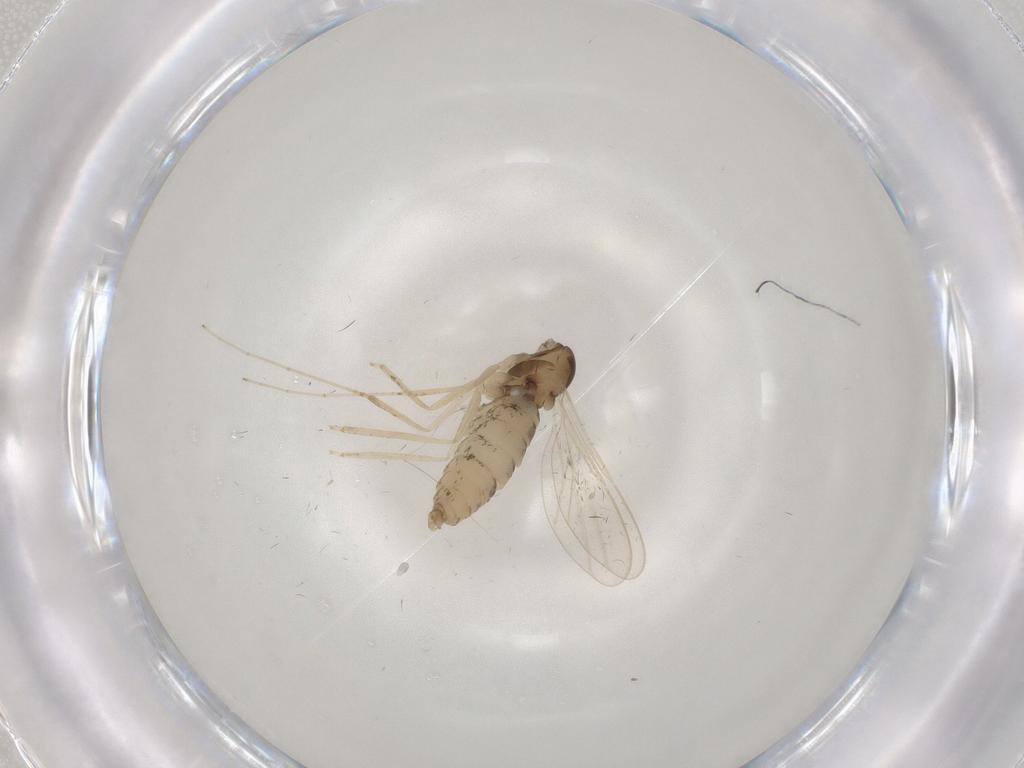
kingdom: Animalia
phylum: Arthropoda
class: Insecta
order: Diptera
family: Cecidomyiidae
